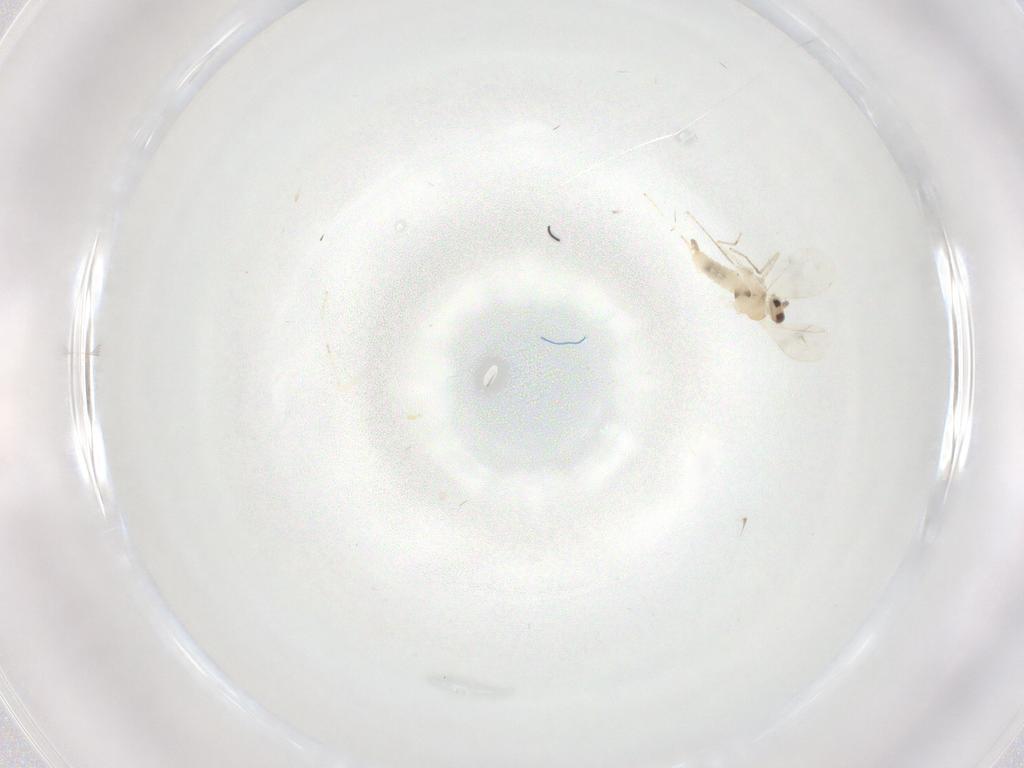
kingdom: Animalia
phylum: Arthropoda
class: Insecta
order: Diptera
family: Cecidomyiidae
